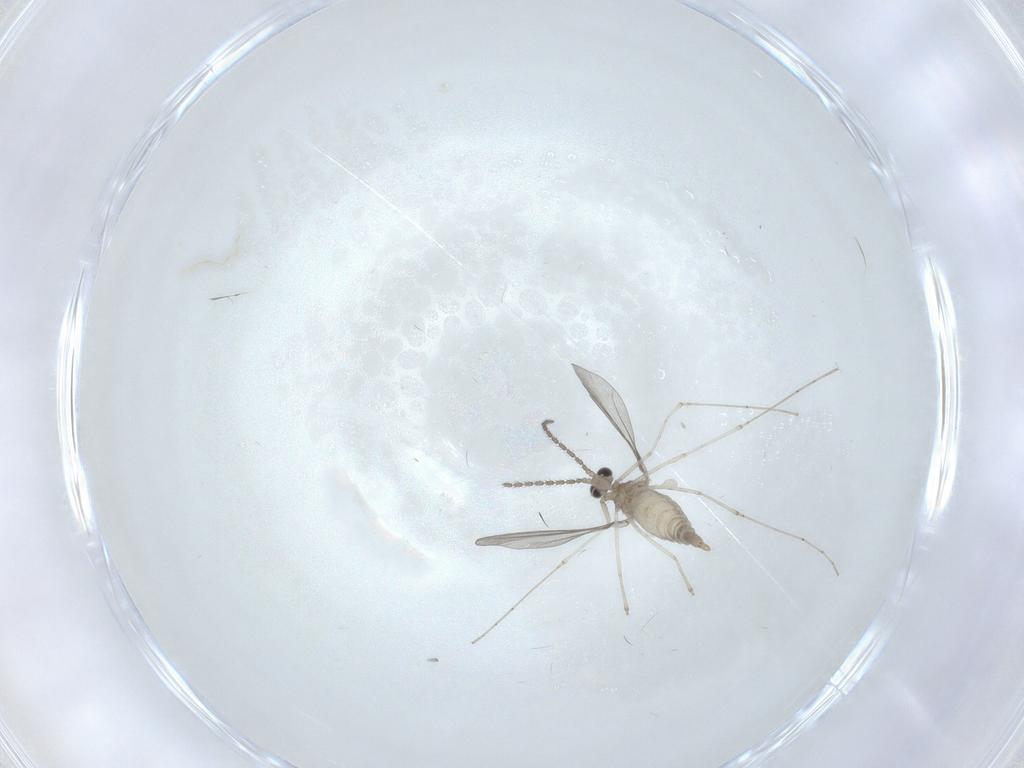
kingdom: Animalia
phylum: Arthropoda
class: Insecta
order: Diptera
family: Cecidomyiidae
